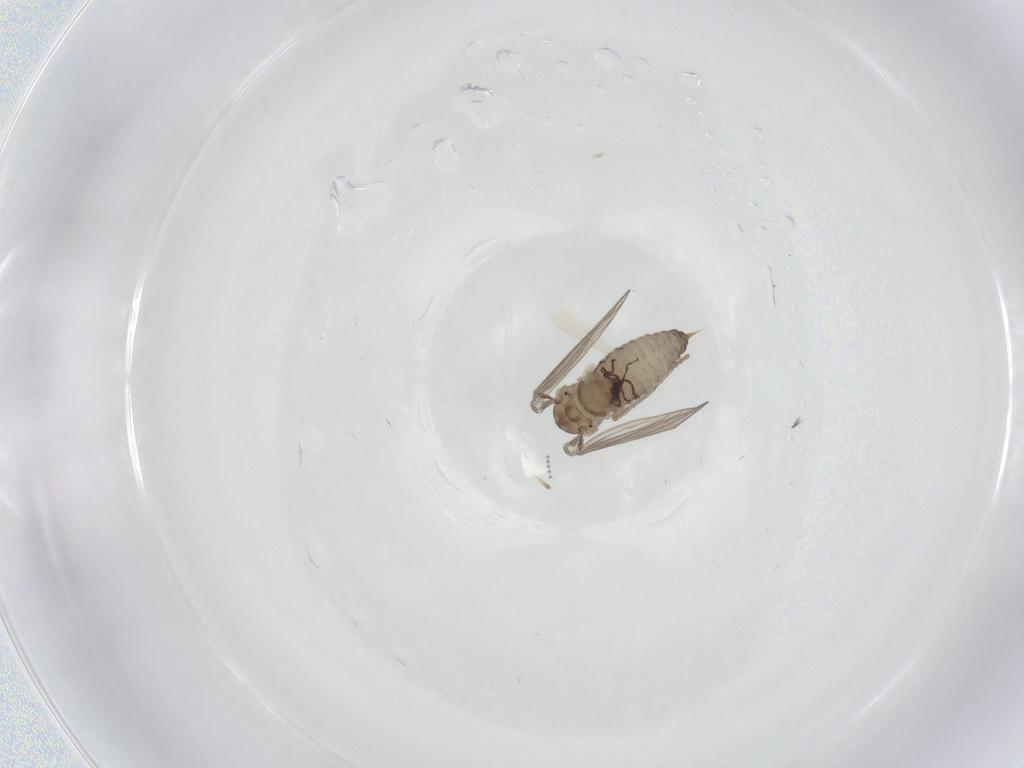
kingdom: Animalia
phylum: Arthropoda
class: Insecta
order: Diptera
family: Psychodidae
